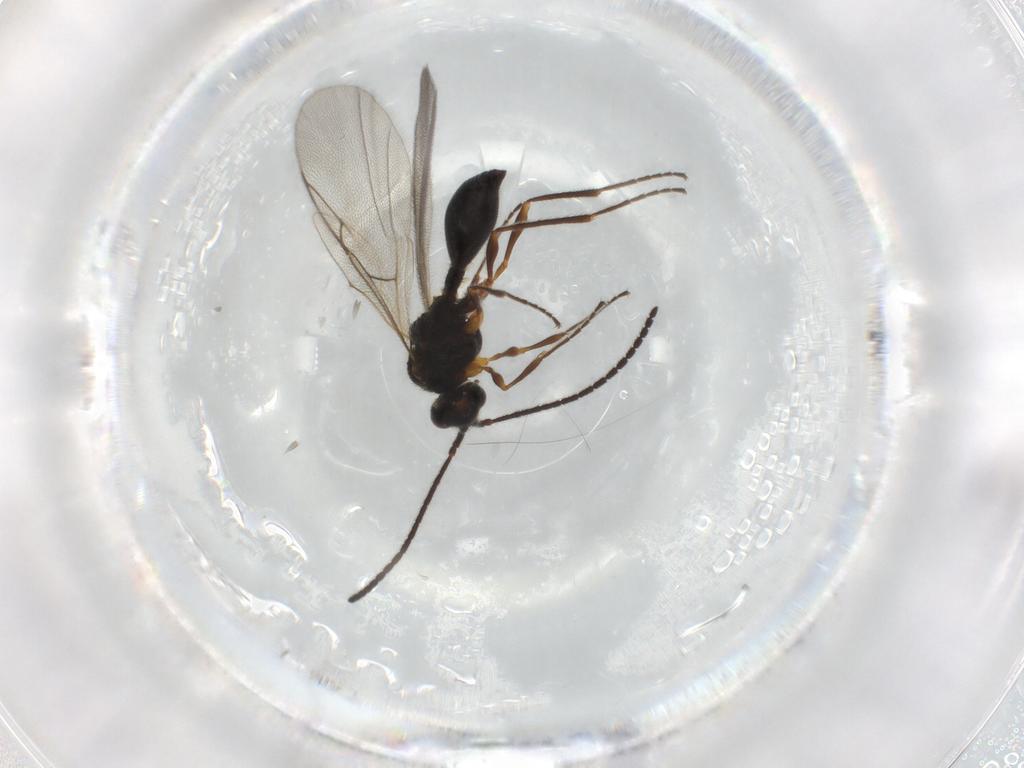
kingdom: Animalia
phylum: Arthropoda
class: Insecta
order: Hymenoptera
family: Diapriidae
